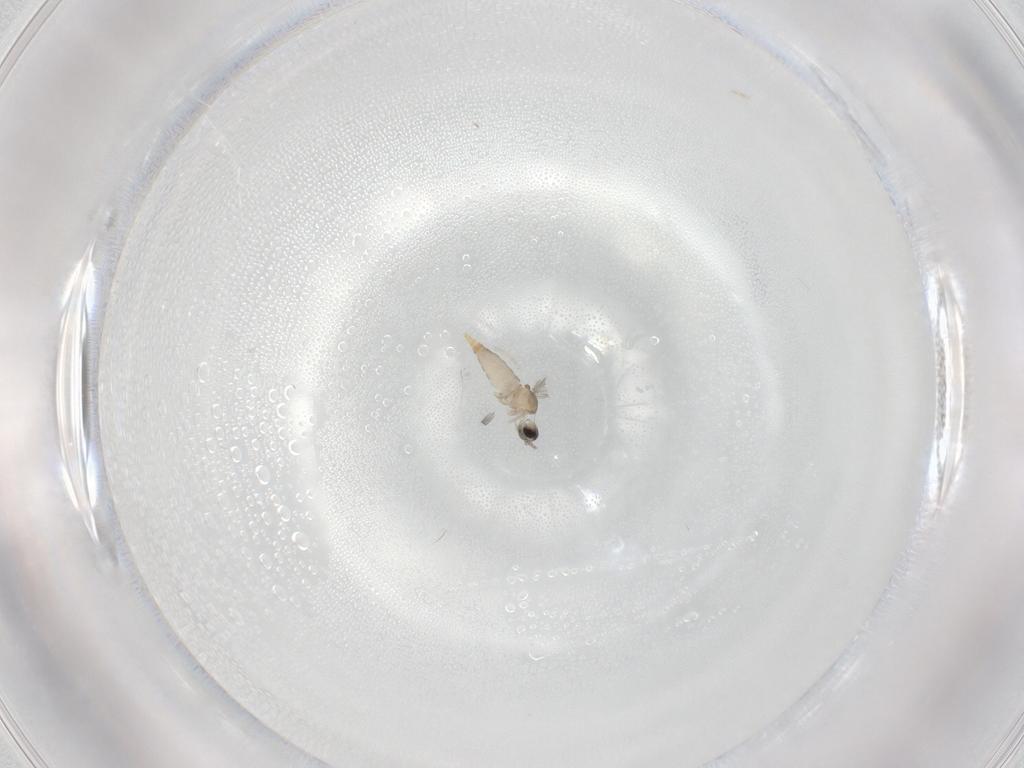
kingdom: Animalia
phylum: Arthropoda
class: Insecta
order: Diptera
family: Cecidomyiidae
